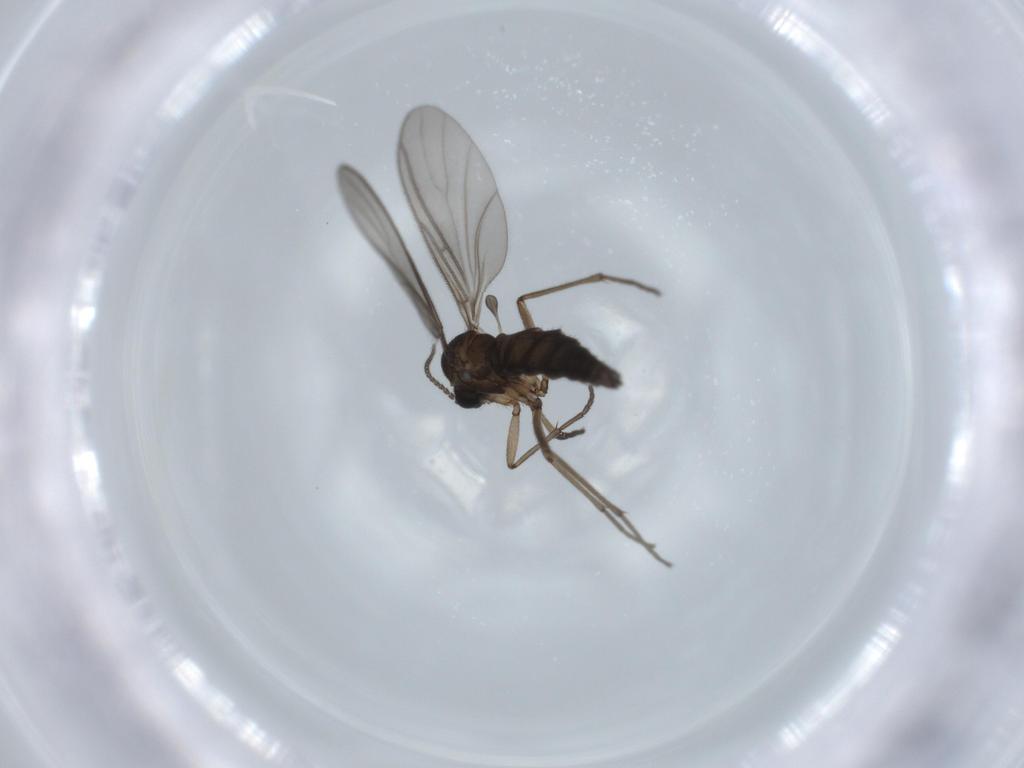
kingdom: Animalia
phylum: Arthropoda
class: Insecta
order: Diptera
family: Sciaridae
